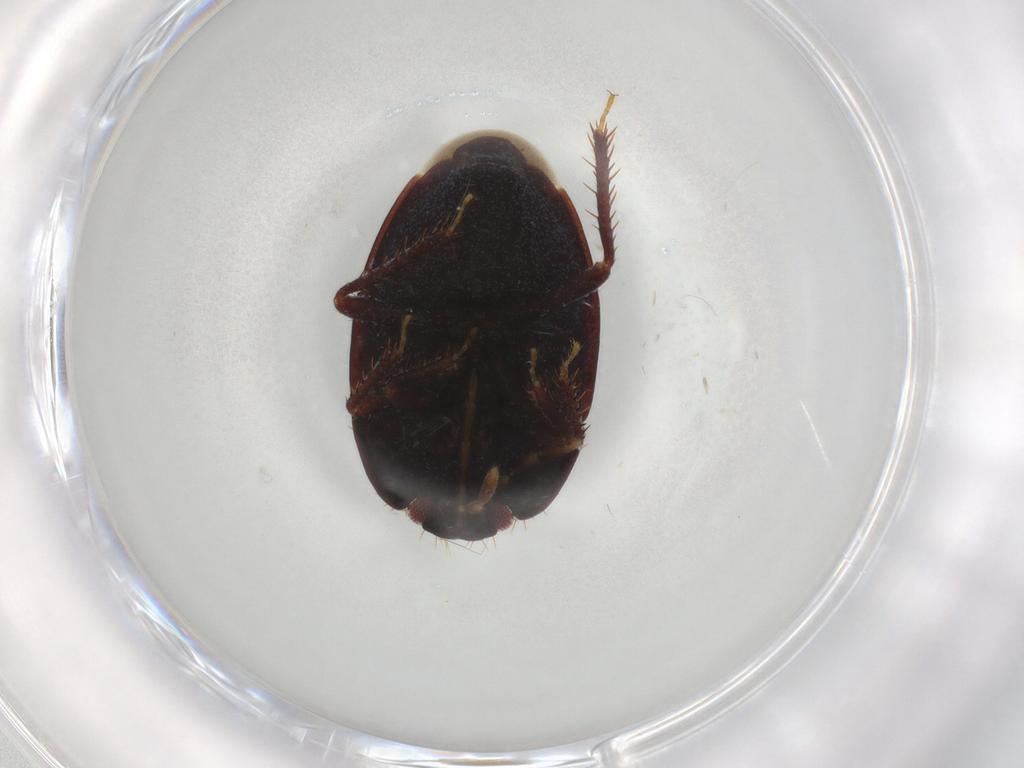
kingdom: Animalia
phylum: Arthropoda
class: Insecta
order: Hemiptera
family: Cydnidae
